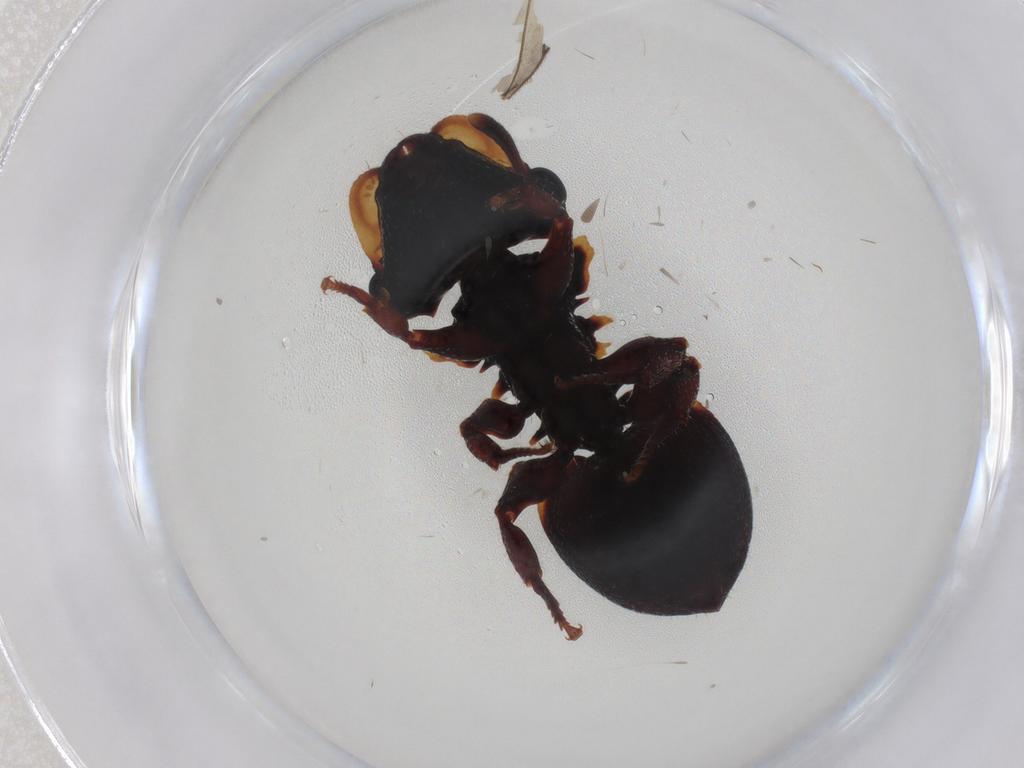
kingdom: Animalia
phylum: Arthropoda
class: Insecta
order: Hymenoptera
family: Formicidae
